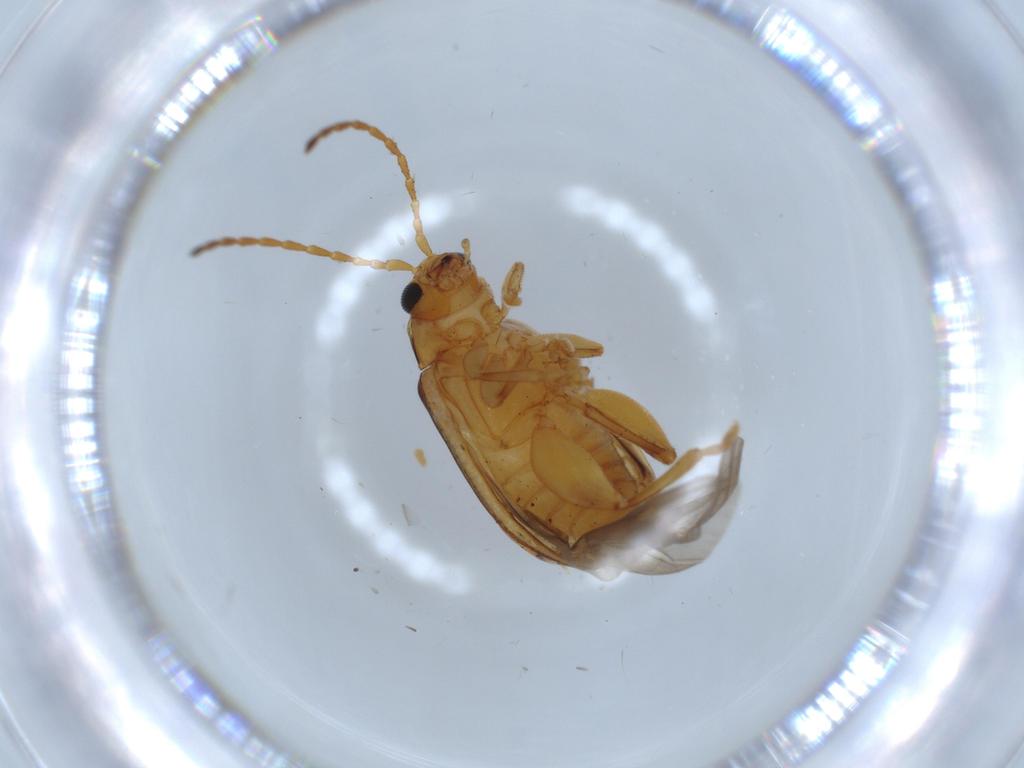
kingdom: Animalia
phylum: Arthropoda
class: Insecta
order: Coleoptera
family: Chrysomelidae
